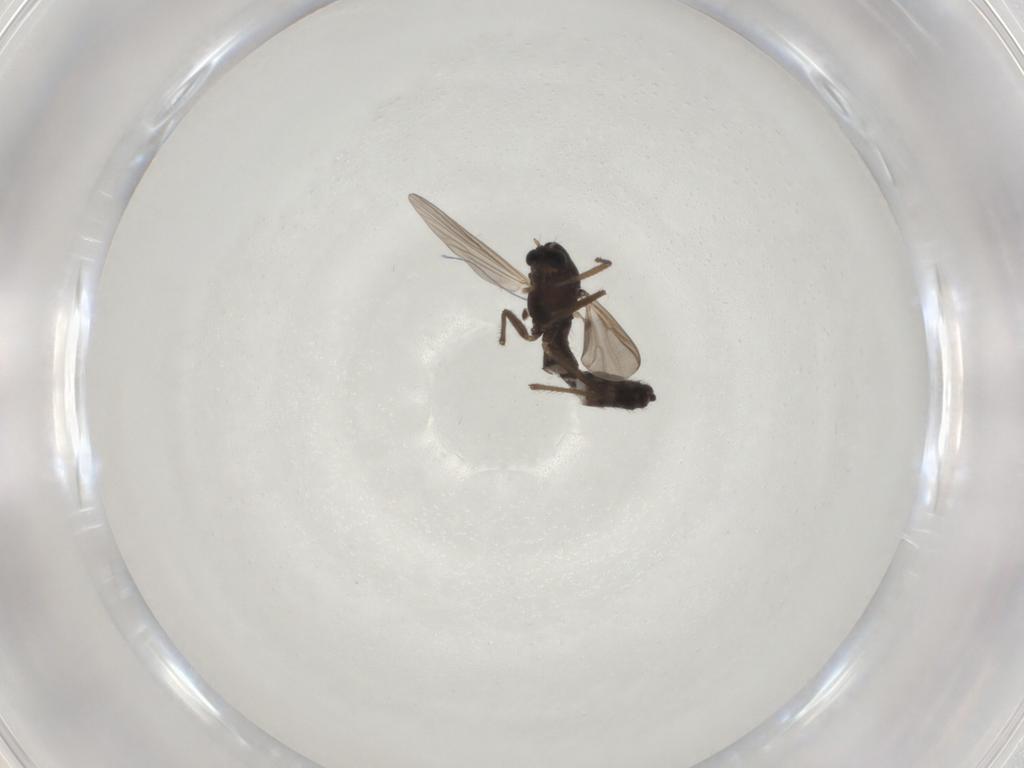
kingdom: Animalia
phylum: Arthropoda
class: Insecta
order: Diptera
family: Chironomidae
